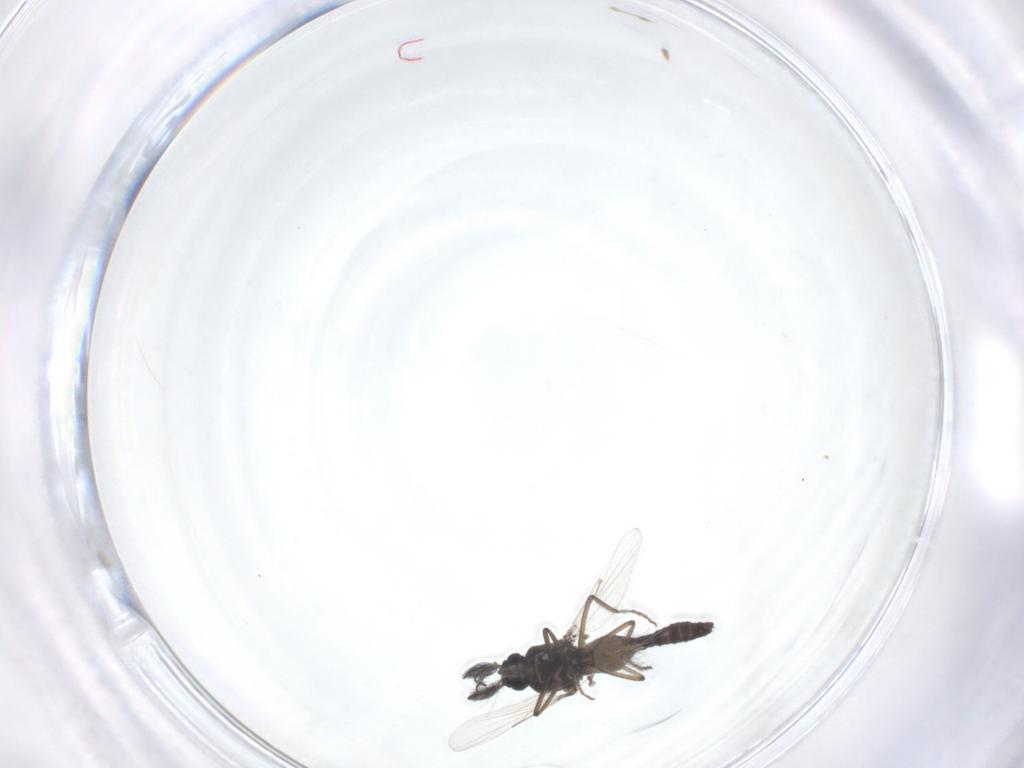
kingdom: Animalia
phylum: Arthropoda
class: Insecta
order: Diptera
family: Ceratopogonidae
